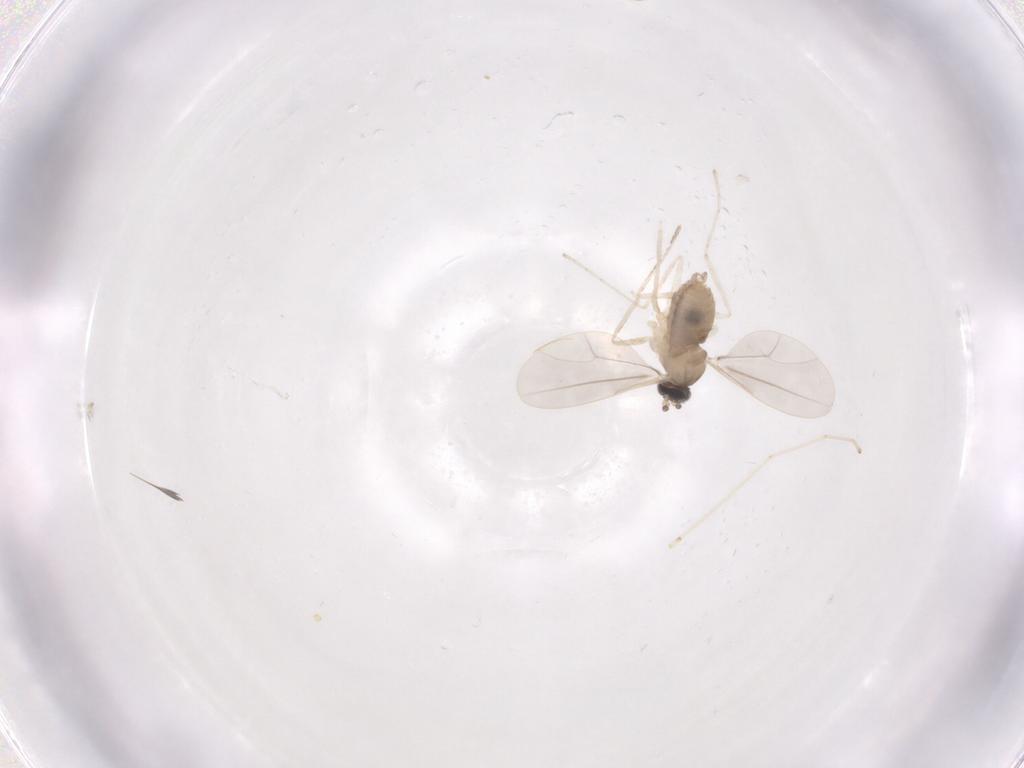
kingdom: Animalia
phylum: Arthropoda
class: Insecta
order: Diptera
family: Cecidomyiidae
